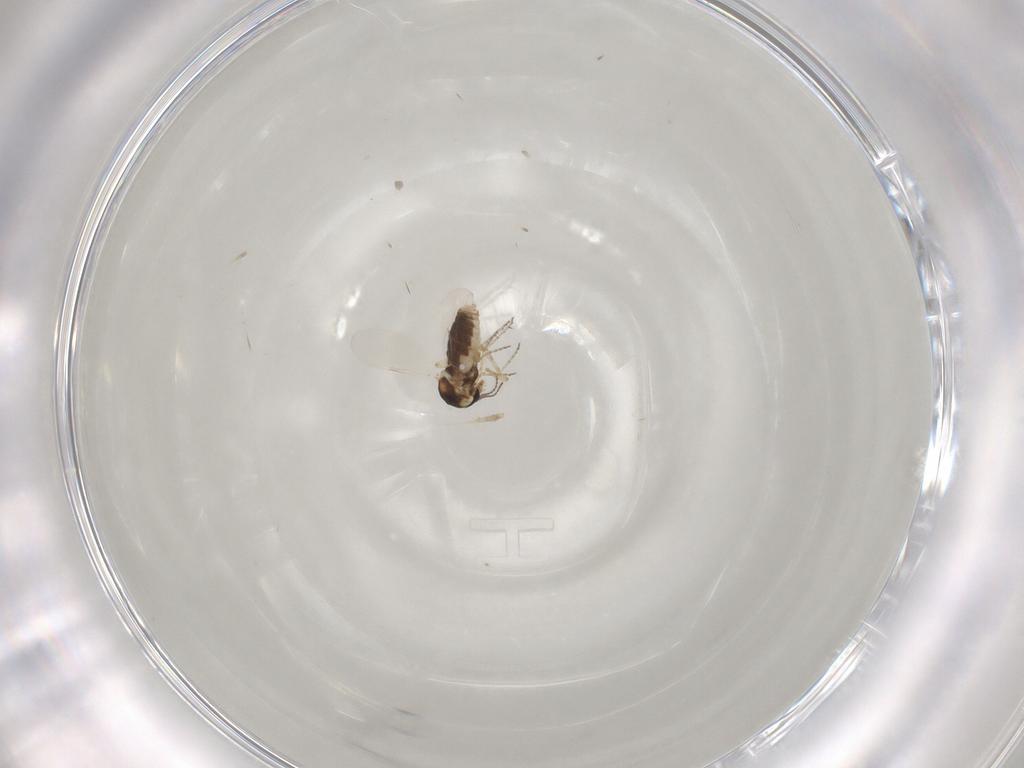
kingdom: Animalia
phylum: Arthropoda
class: Insecta
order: Diptera
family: Ceratopogonidae
